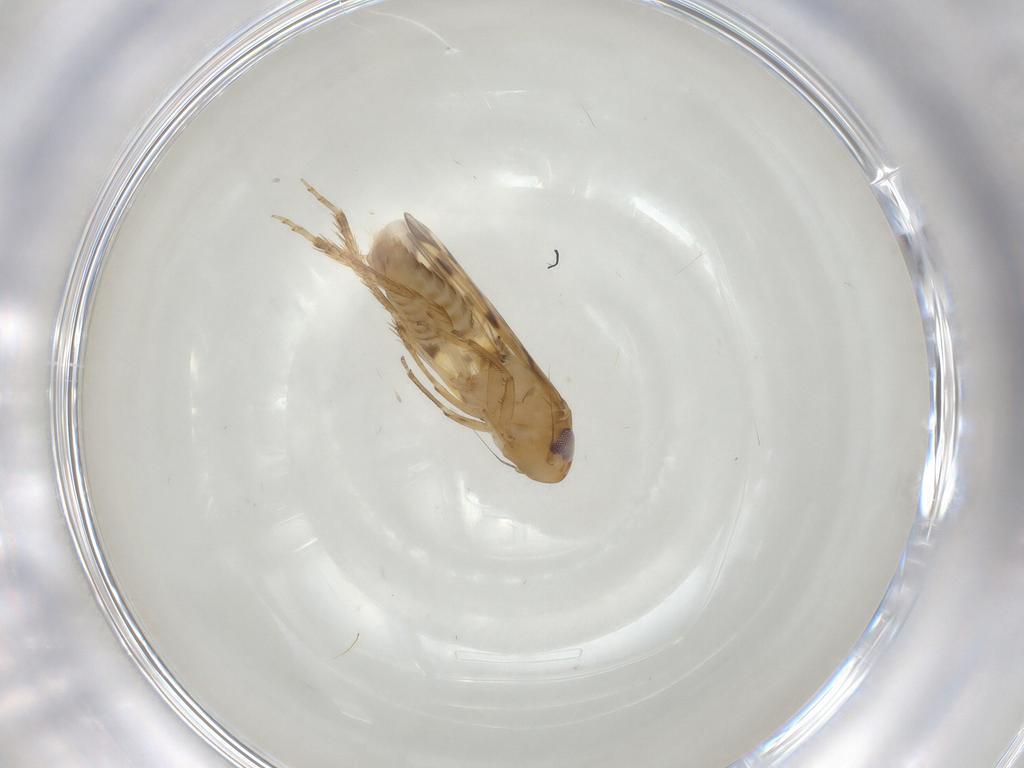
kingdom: Animalia
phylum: Arthropoda
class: Insecta
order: Hemiptera
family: Cicadellidae
